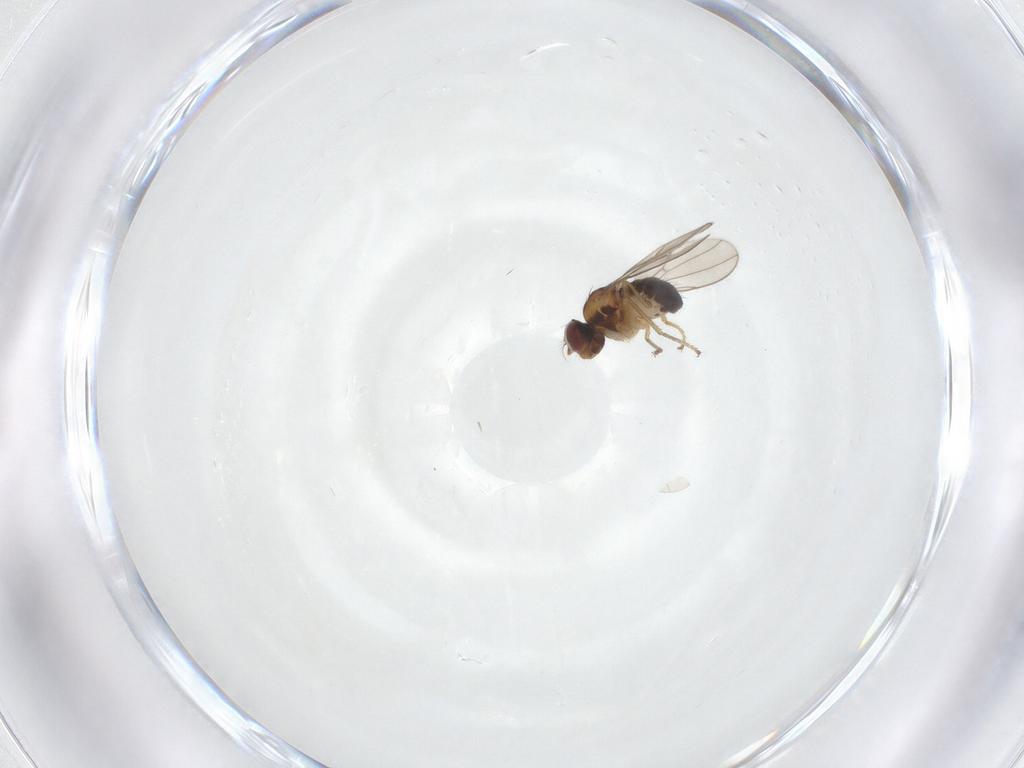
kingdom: Animalia
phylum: Arthropoda
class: Insecta
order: Diptera
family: Ephydridae
